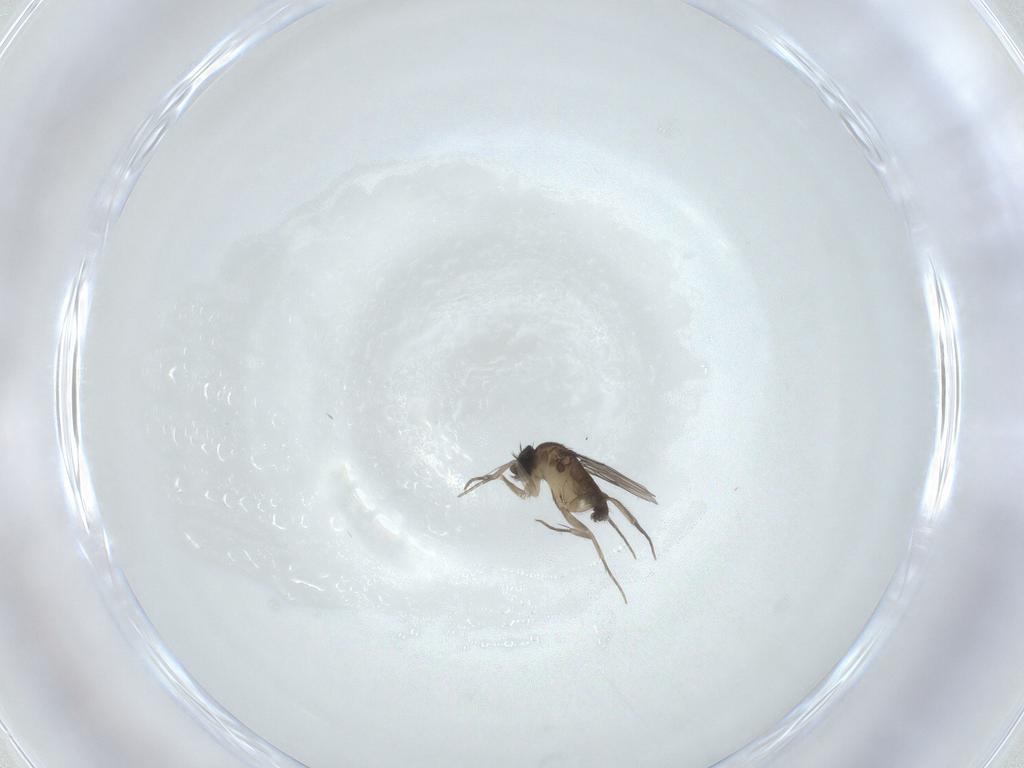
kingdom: Animalia
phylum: Arthropoda
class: Insecta
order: Diptera
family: Phoridae
